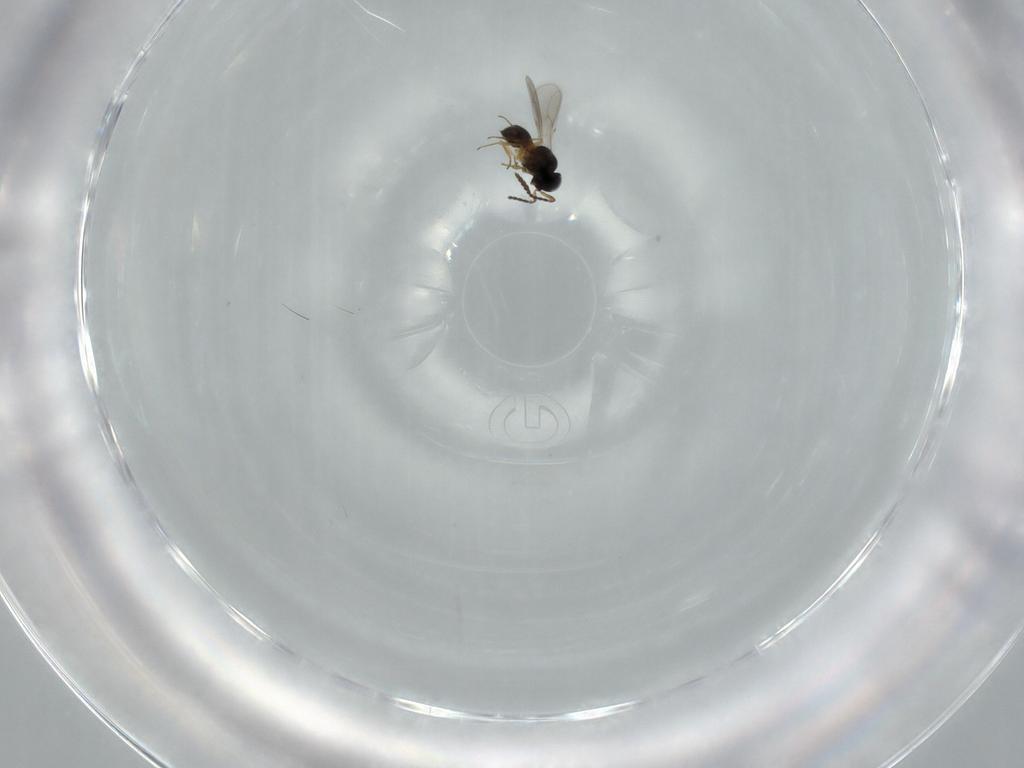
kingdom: Animalia
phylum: Arthropoda
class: Insecta
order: Hymenoptera
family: Scelionidae
